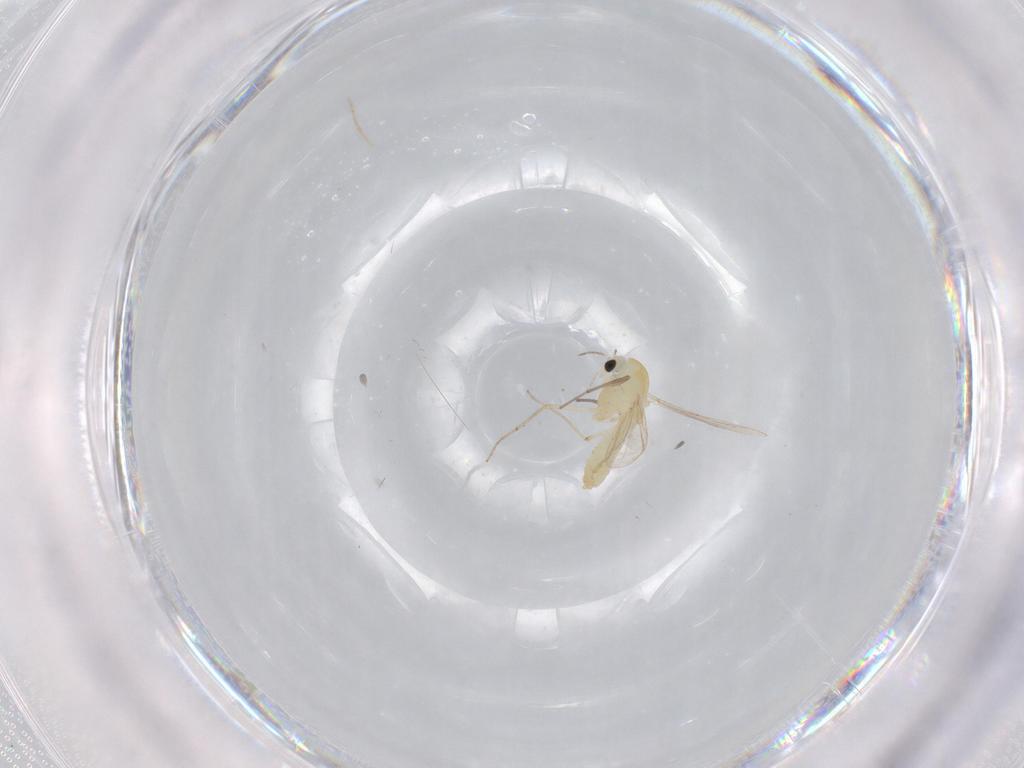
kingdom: Animalia
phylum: Arthropoda
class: Insecta
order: Diptera
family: Chironomidae
